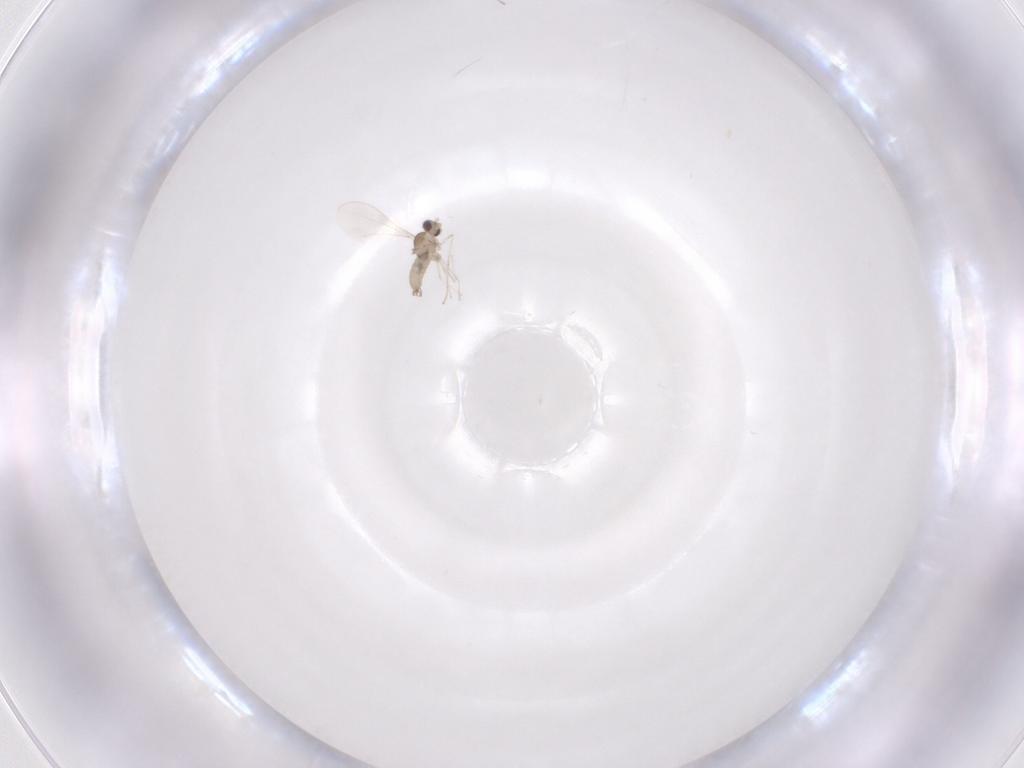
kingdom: Animalia
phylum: Arthropoda
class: Insecta
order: Diptera
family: Cecidomyiidae
